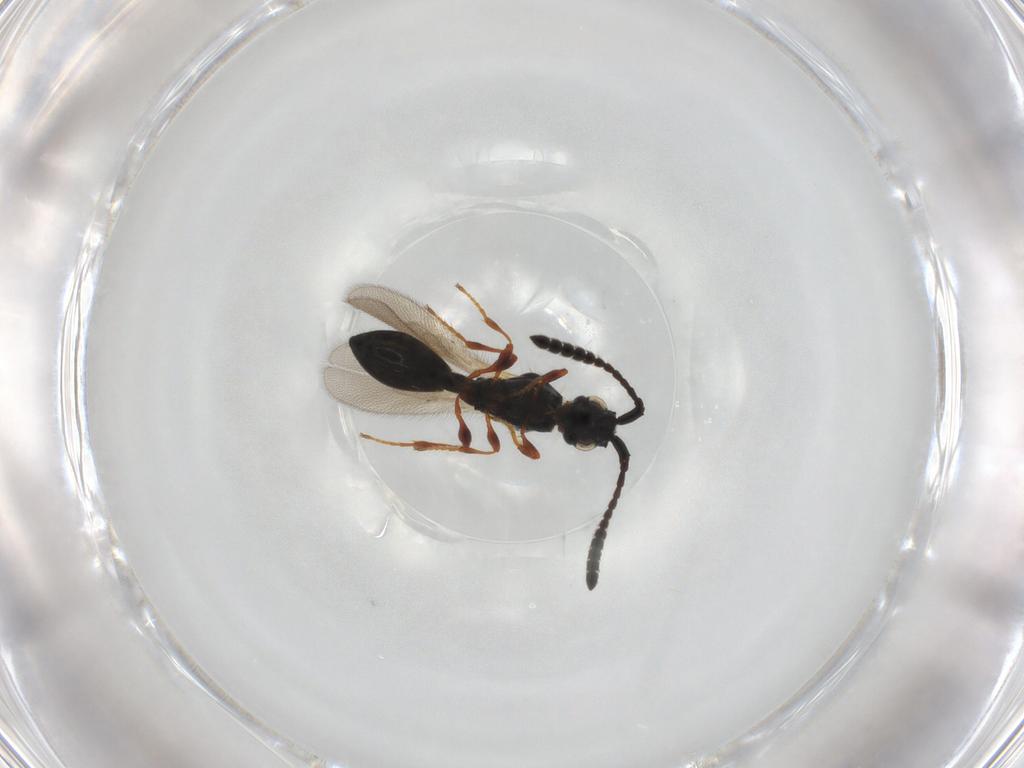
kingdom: Animalia
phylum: Arthropoda
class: Insecta
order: Hymenoptera
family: Diapriidae
